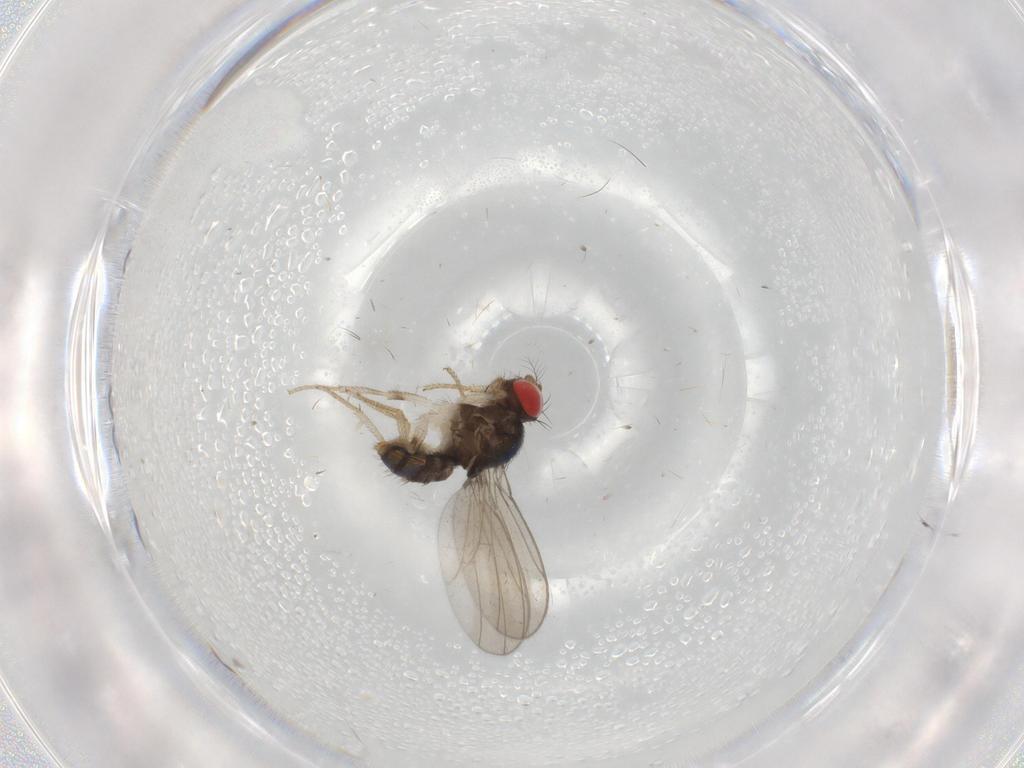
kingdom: Animalia
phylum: Arthropoda
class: Insecta
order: Diptera
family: Drosophilidae
